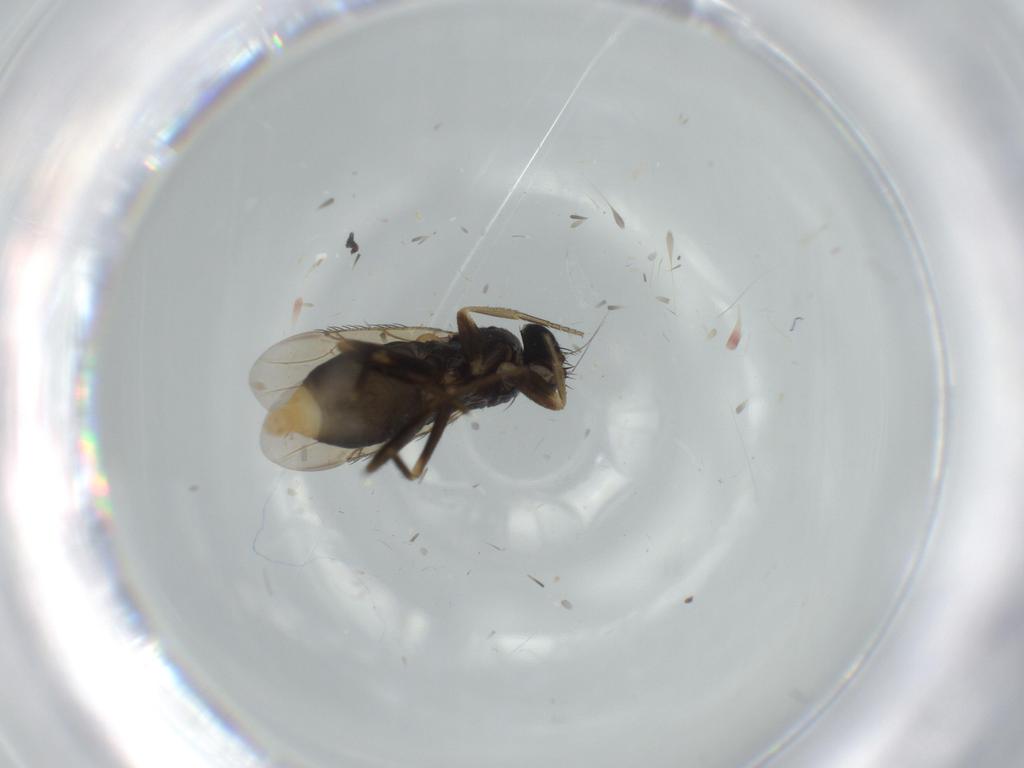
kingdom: Animalia
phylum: Arthropoda
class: Insecta
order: Diptera
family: Phoridae
